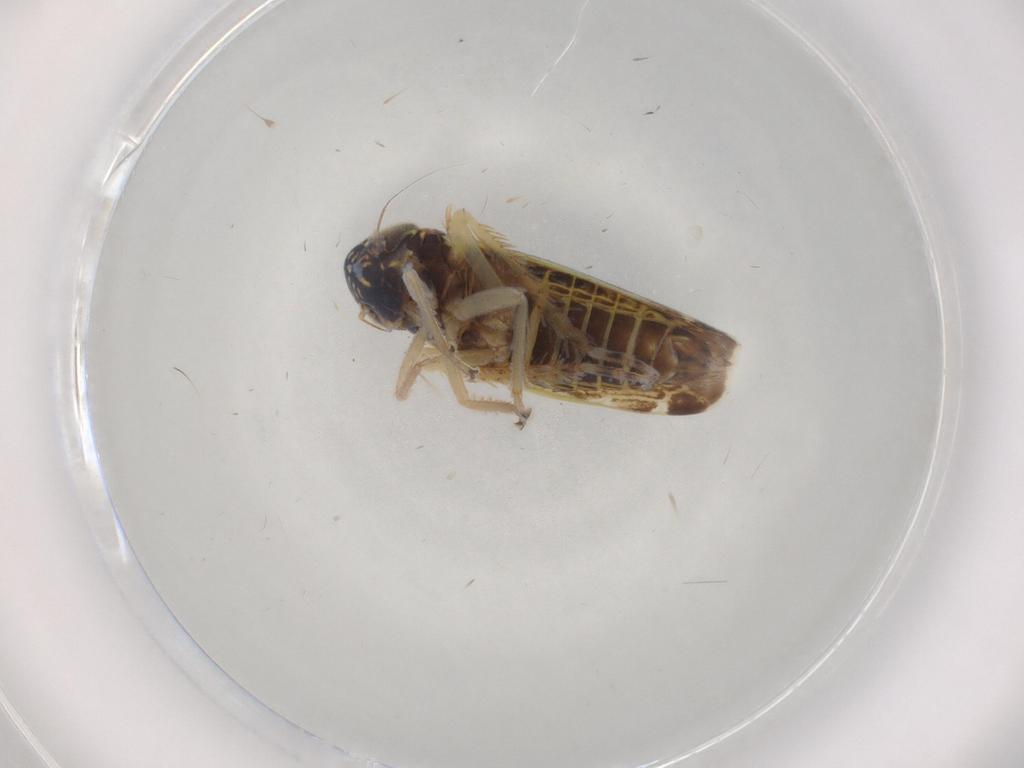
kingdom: Animalia
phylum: Arthropoda
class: Insecta
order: Hemiptera
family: Cicadellidae
